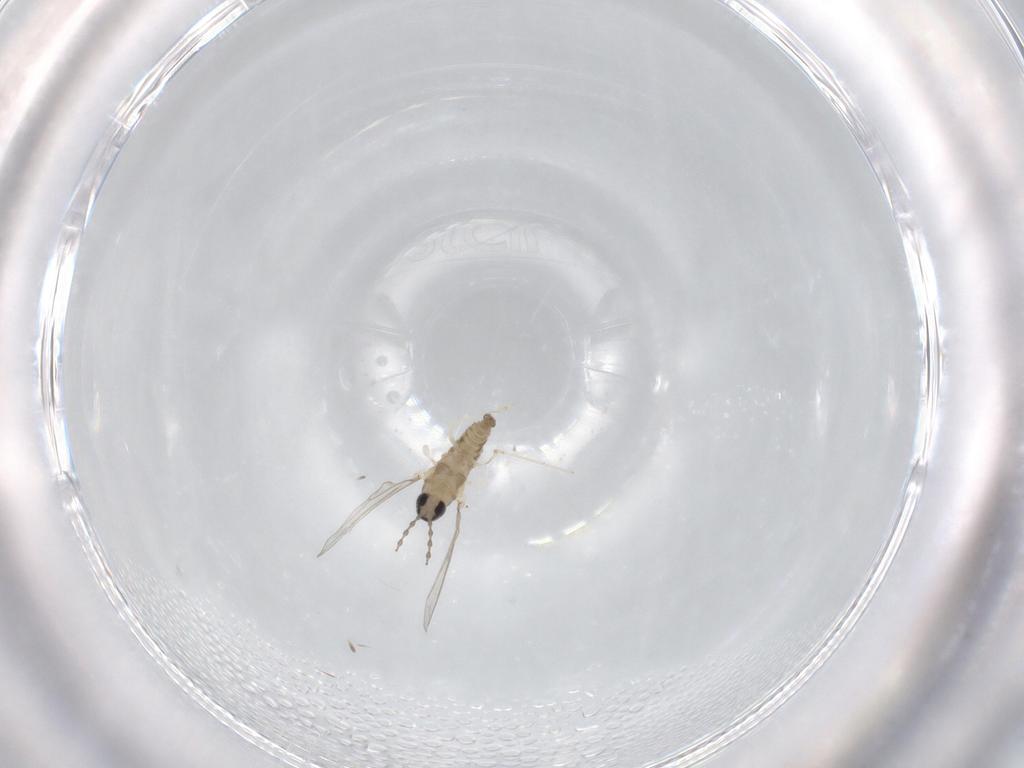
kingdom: Animalia
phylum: Arthropoda
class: Insecta
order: Diptera
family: Cecidomyiidae
